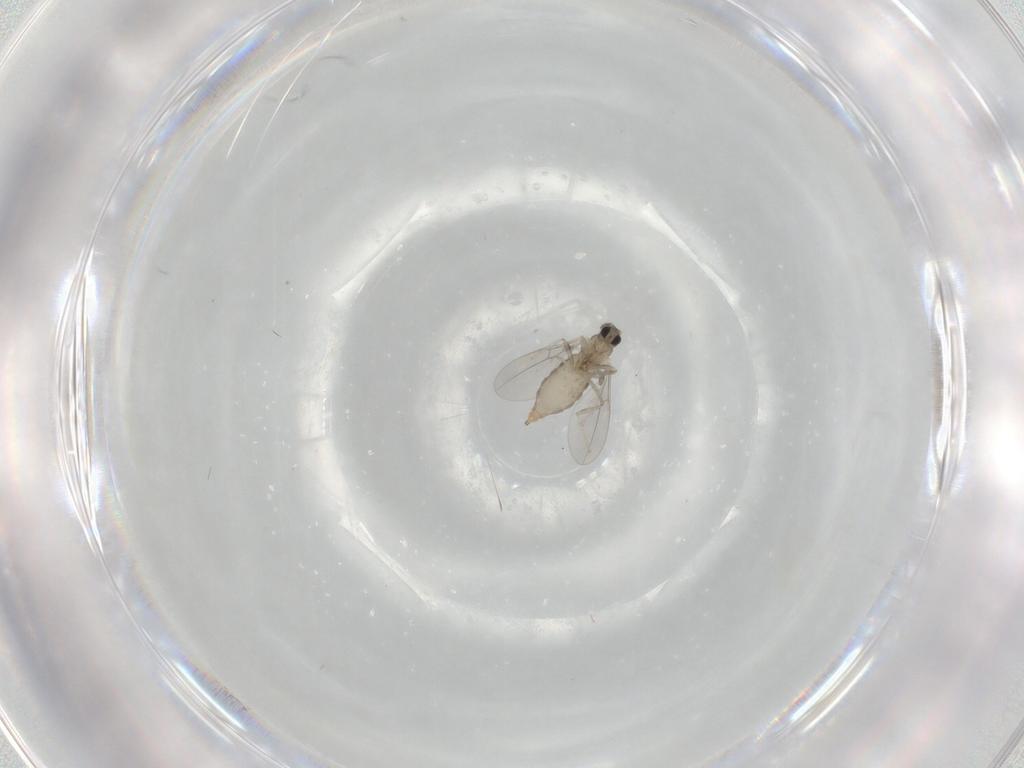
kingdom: Animalia
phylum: Arthropoda
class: Insecta
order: Diptera
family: Cecidomyiidae
